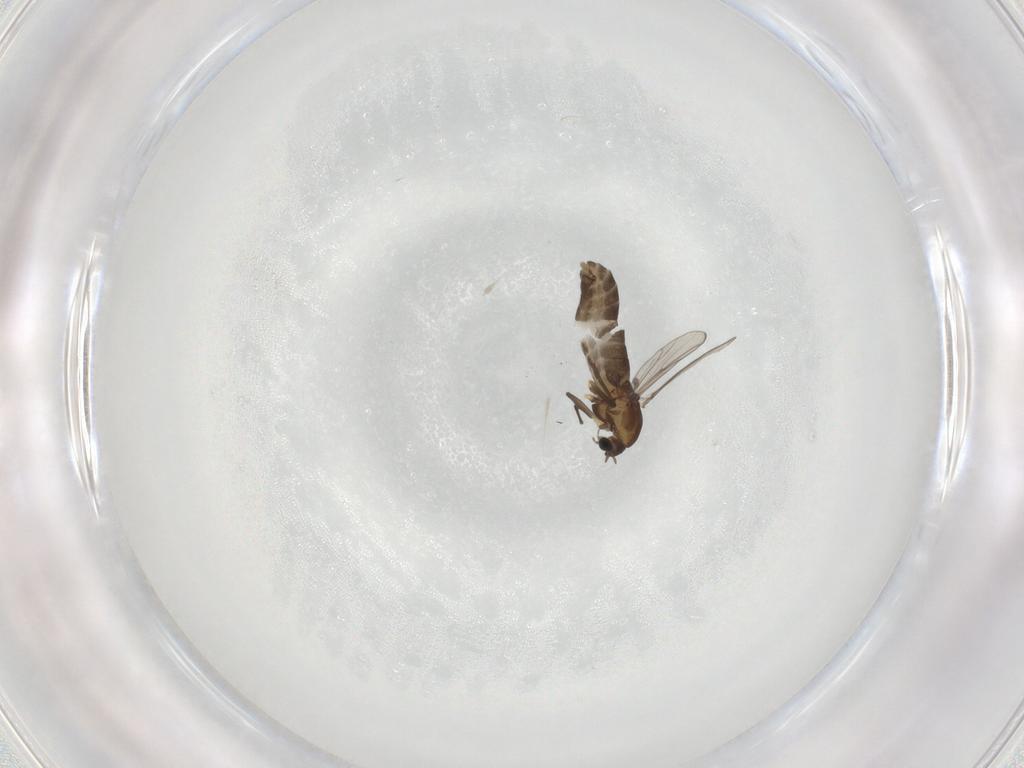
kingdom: Animalia
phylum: Arthropoda
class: Insecta
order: Diptera
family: Chironomidae
